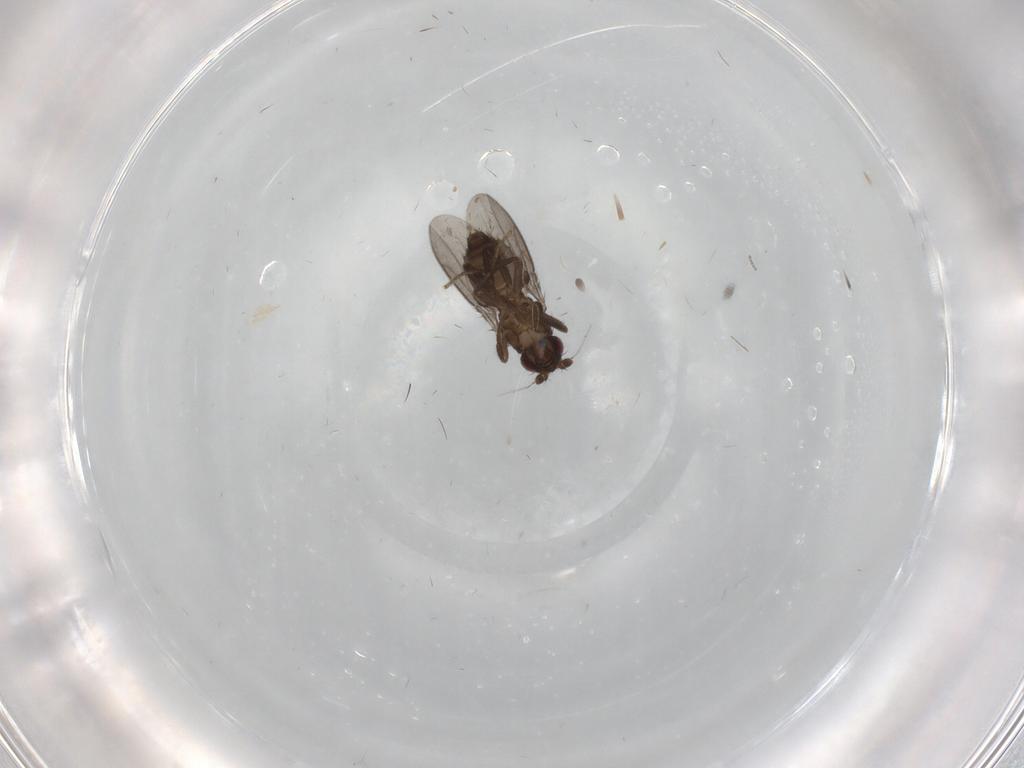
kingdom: Animalia
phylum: Arthropoda
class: Insecta
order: Diptera
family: Cecidomyiidae
